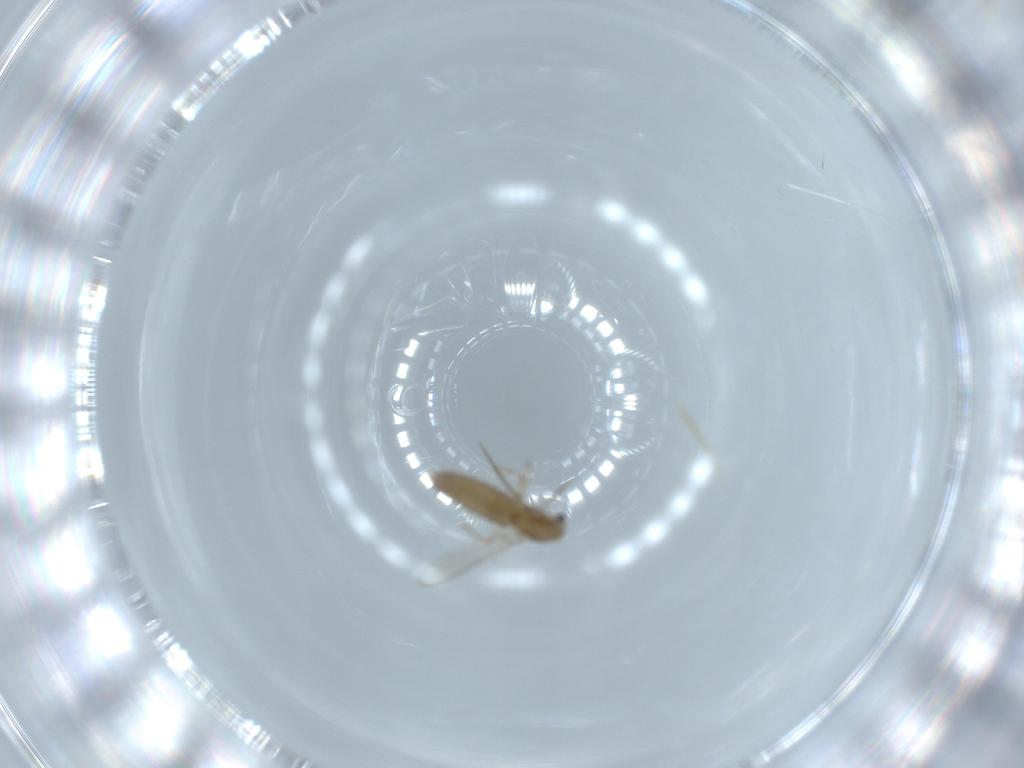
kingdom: Animalia
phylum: Arthropoda
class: Insecta
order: Diptera
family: Chironomidae
